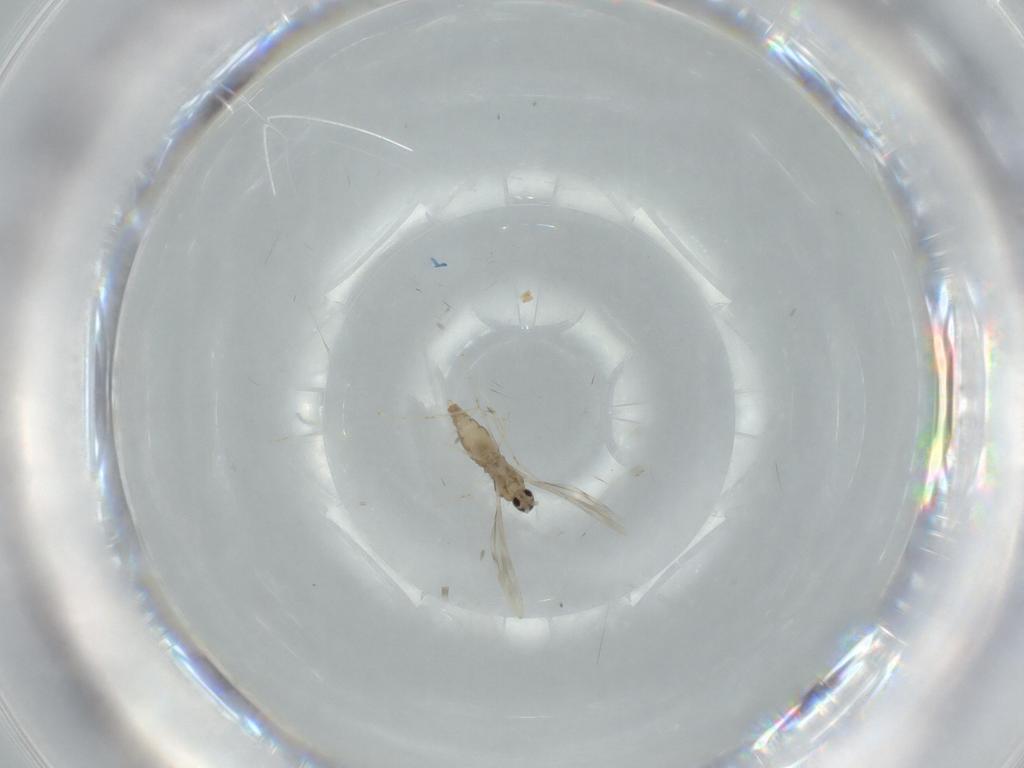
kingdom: Animalia
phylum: Arthropoda
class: Insecta
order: Diptera
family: Cecidomyiidae
